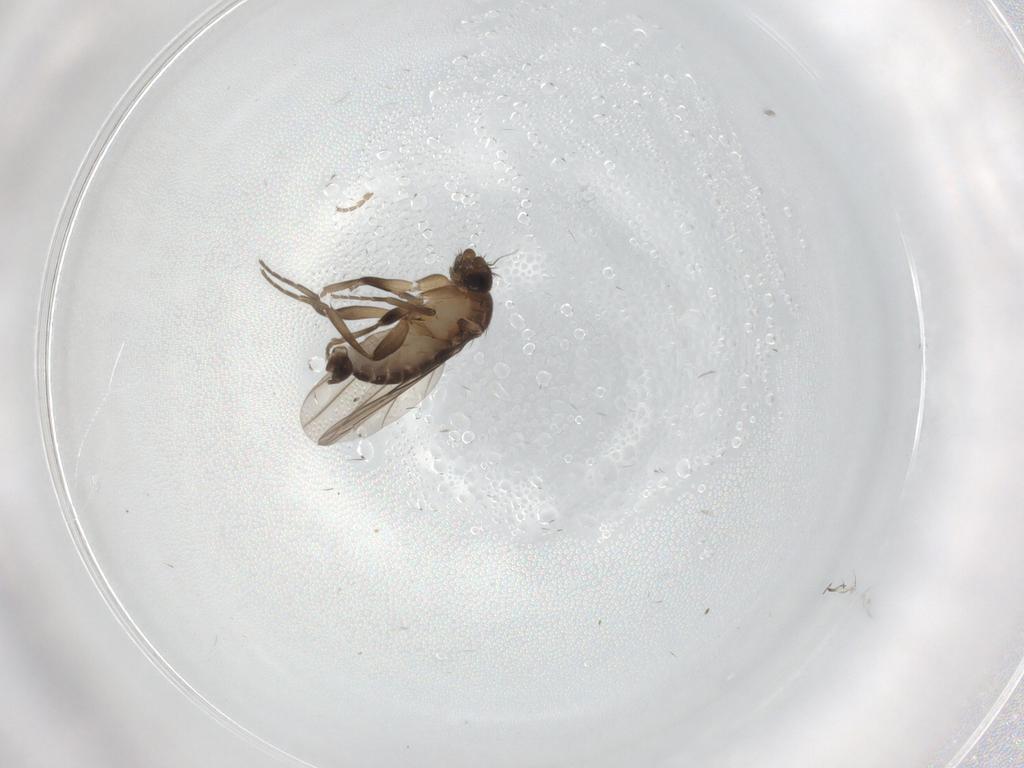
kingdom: Animalia
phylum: Arthropoda
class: Insecta
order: Diptera
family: Phoridae
